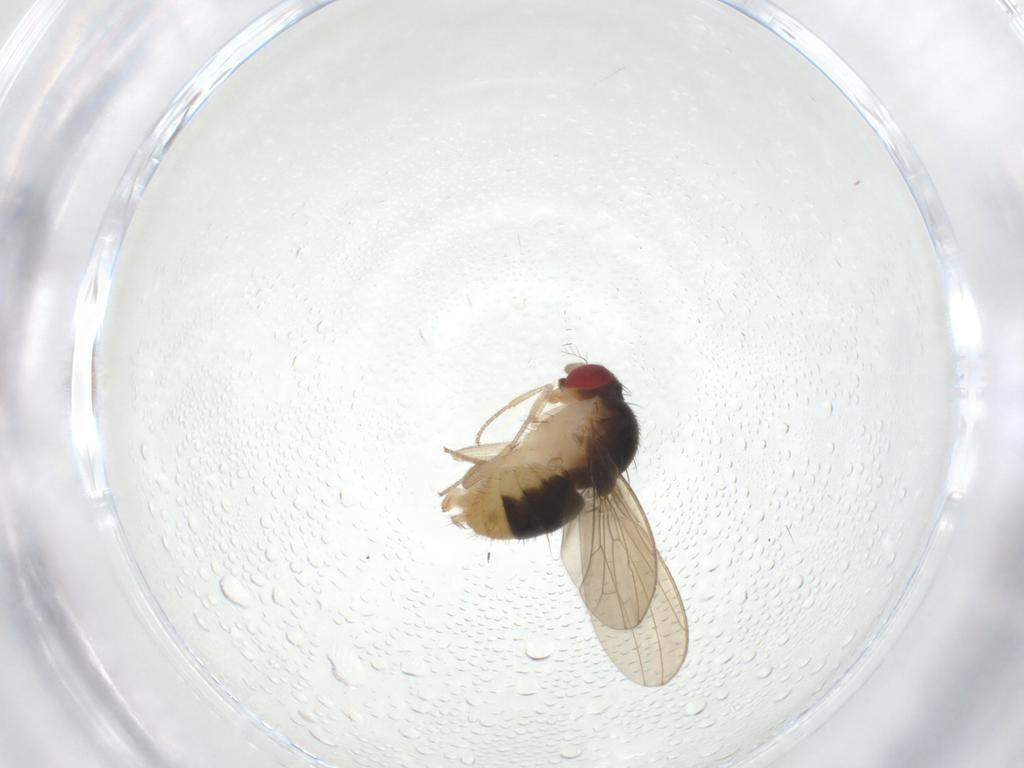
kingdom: Animalia
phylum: Arthropoda
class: Insecta
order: Diptera
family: Drosophilidae
